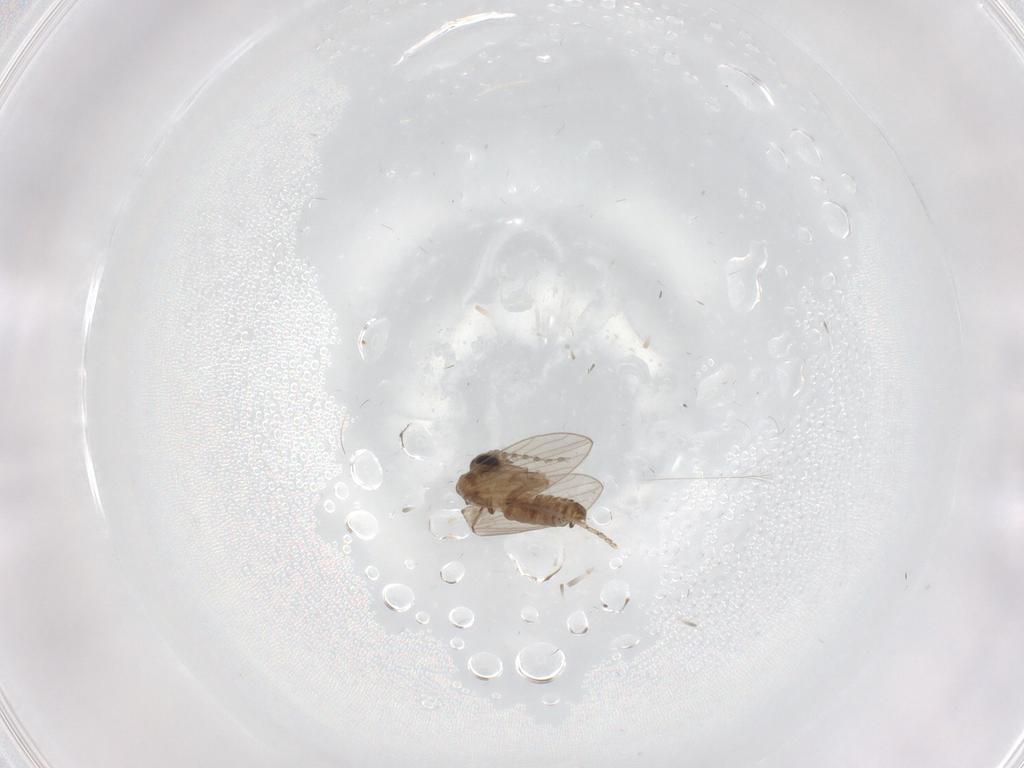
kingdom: Animalia
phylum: Arthropoda
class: Insecta
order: Diptera
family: Psychodidae
